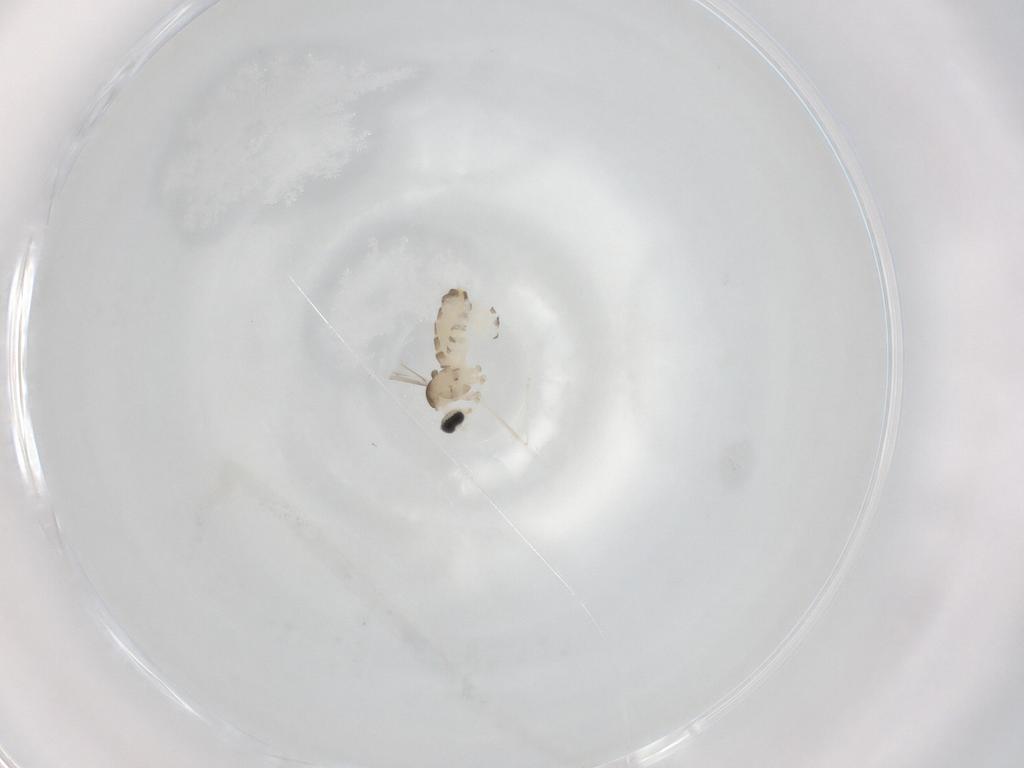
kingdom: Animalia
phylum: Arthropoda
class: Insecta
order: Diptera
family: Cecidomyiidae
